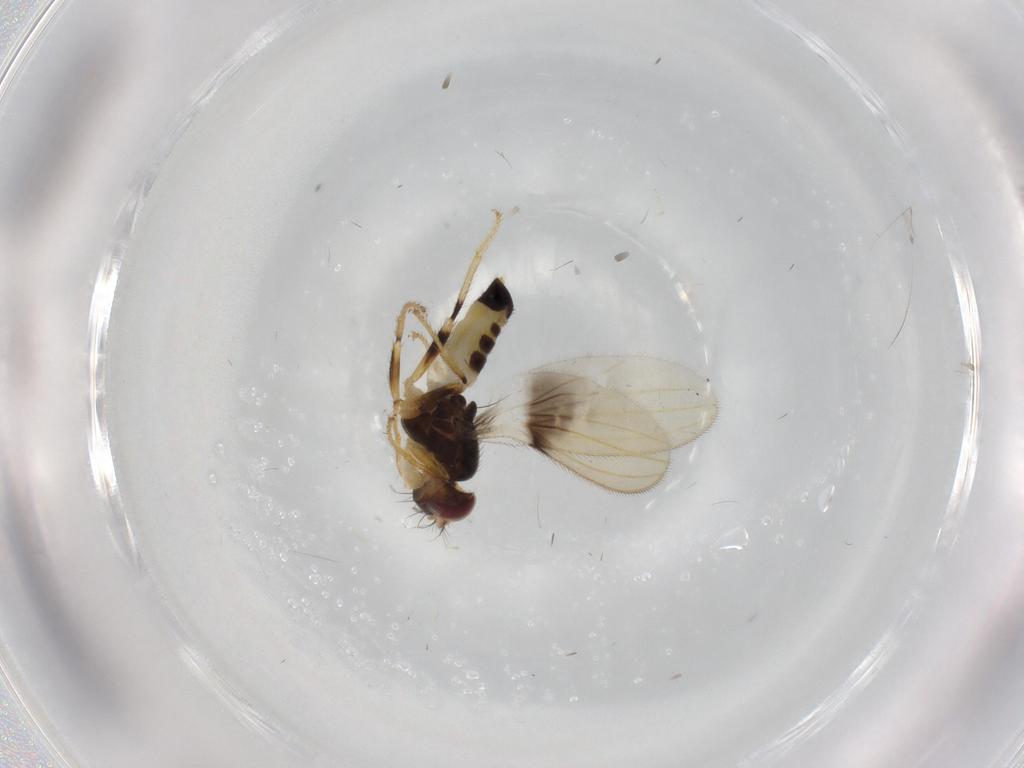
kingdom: Animalia
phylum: Arthropoda
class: Insecta
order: Diptera
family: Periscelididae
